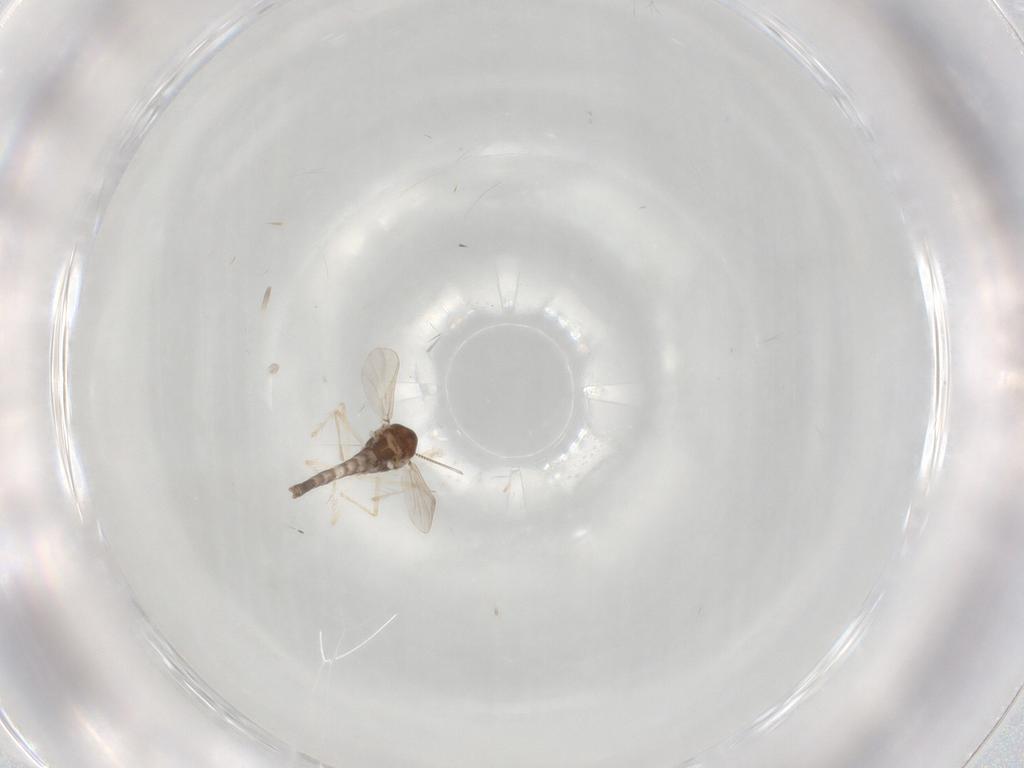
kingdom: Animalia
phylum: Arthropoda
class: Insecta
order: Diptera
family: Chironomidae
